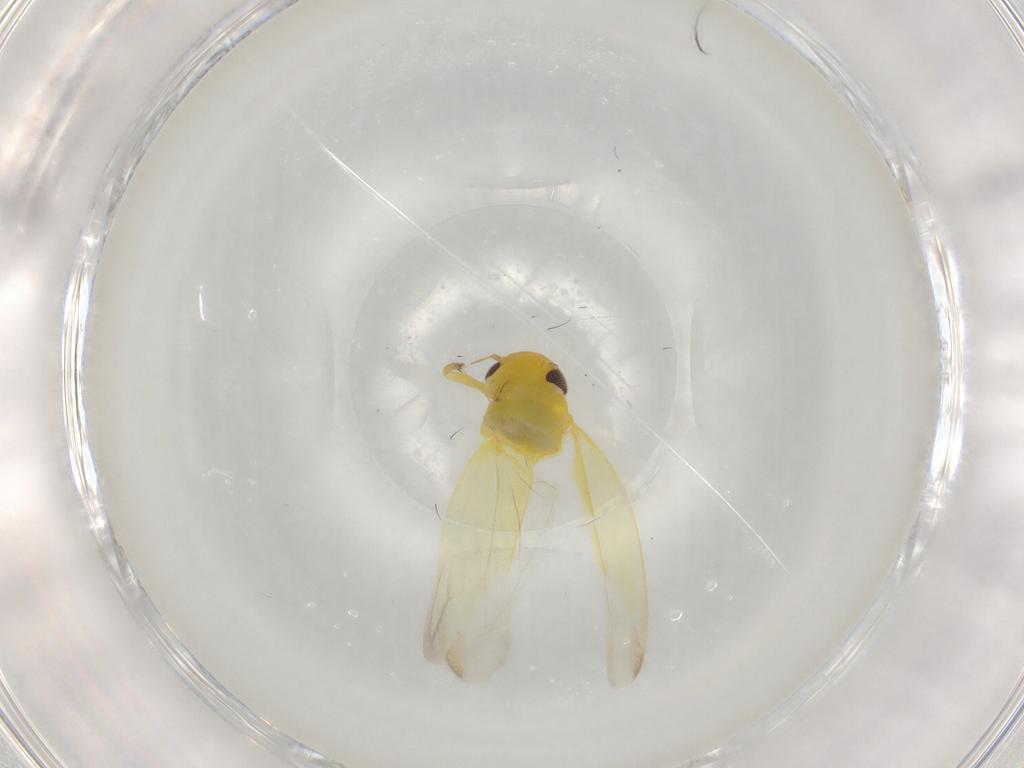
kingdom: Animalia
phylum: Arthropoda
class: Insecta
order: Hemiptera
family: Cicadellidae
